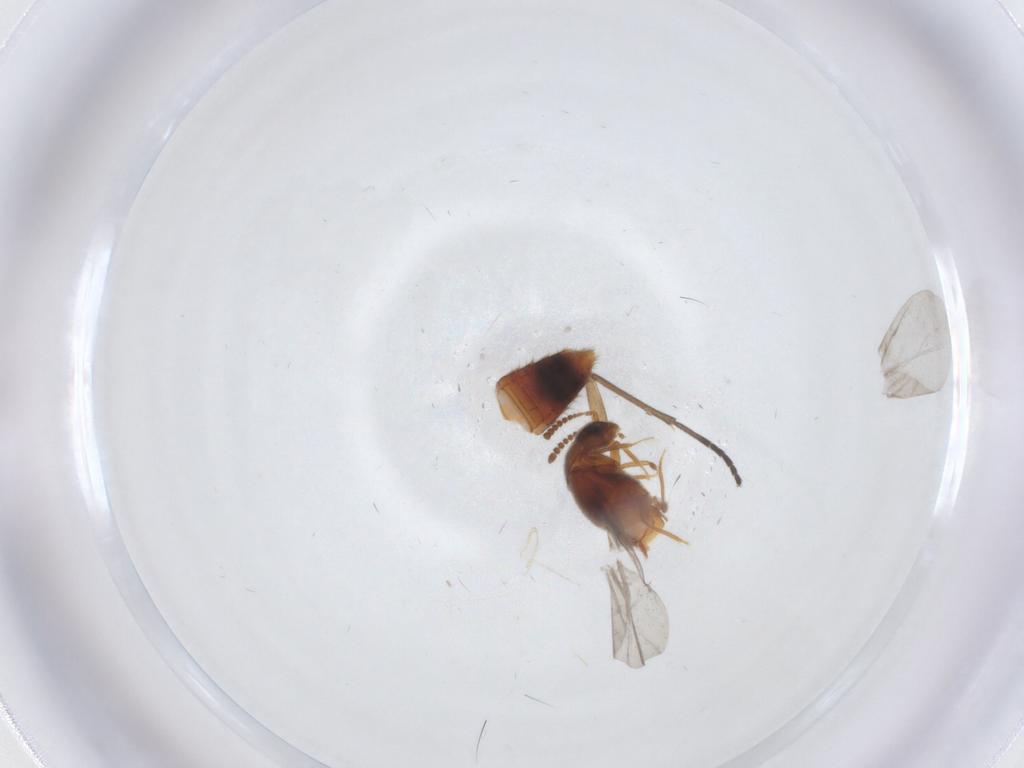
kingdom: Animalia
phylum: Arthropoda
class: Insecta
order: Coleoptera
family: Staphylinidae
